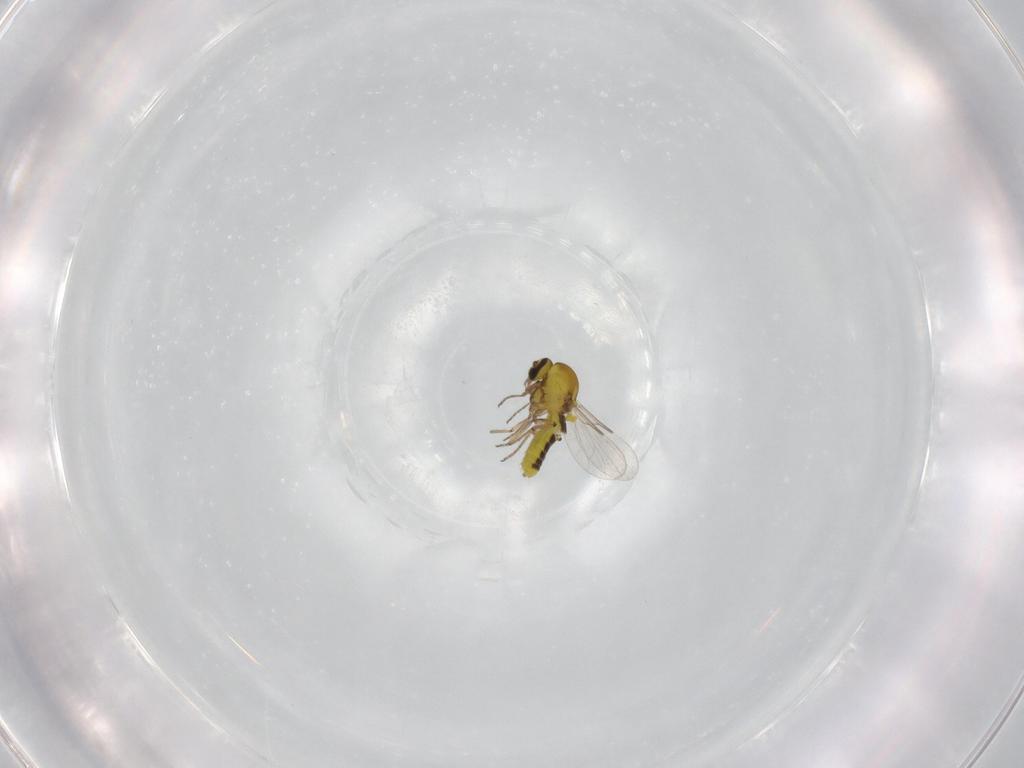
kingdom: Animalia
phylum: Arthropoda
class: Insecta
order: Diptera
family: Ceratopogonidae
